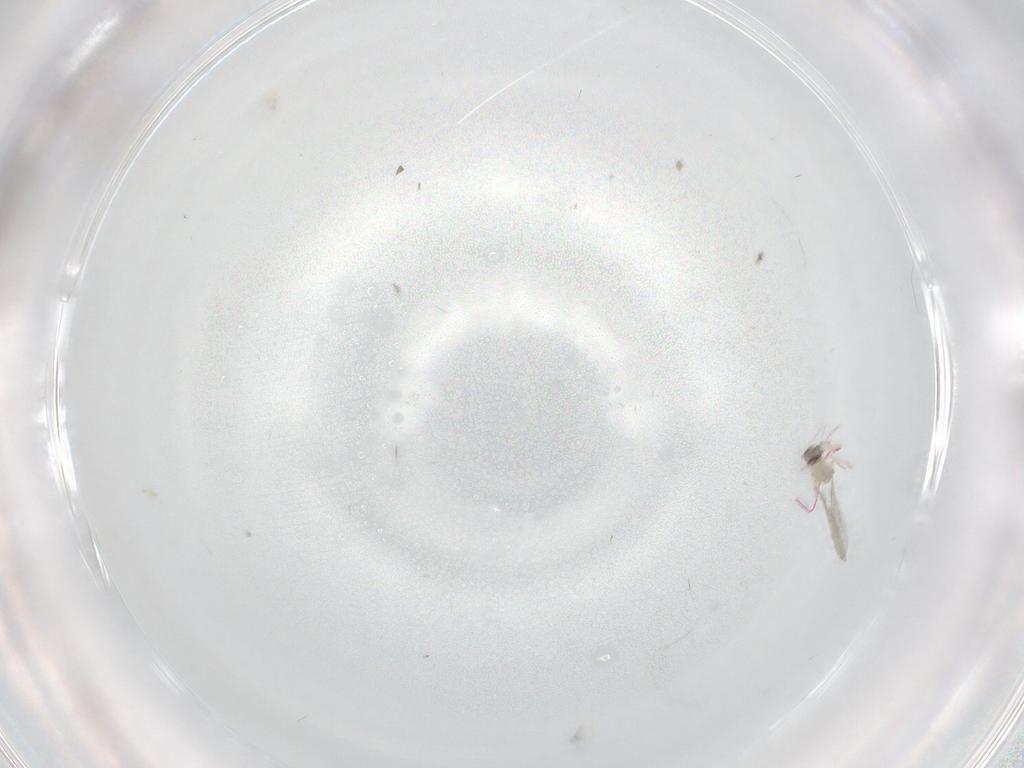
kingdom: Animalia
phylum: Arthropoda
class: Insecta
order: Diptera
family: Cecidomyiidae
